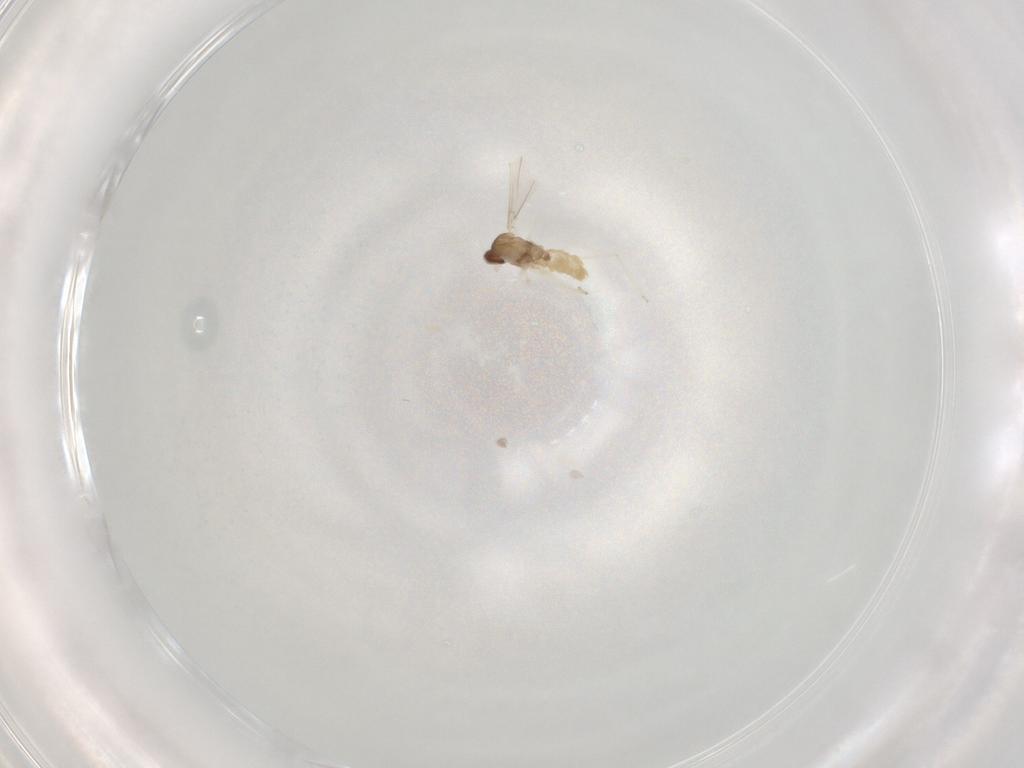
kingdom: Animalia
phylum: Arthropoda
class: Insecta
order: Diptera
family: Cecidomyiidae
